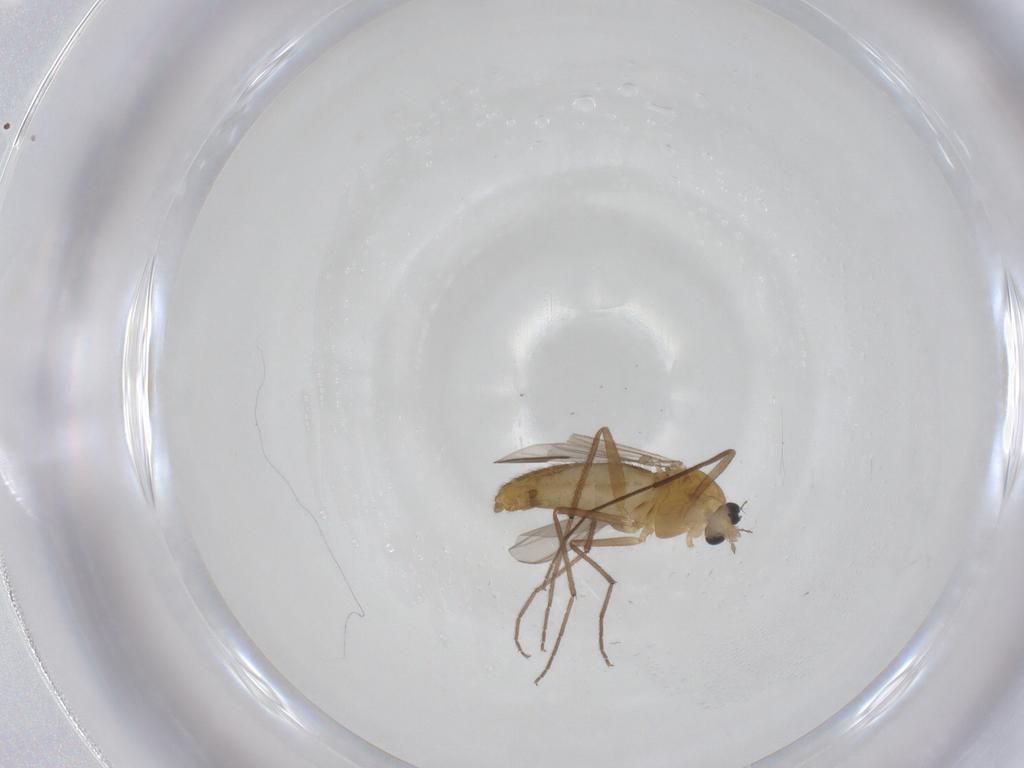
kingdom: Animalia
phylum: Arthropoda
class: Insecta
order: Diptera
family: Chironomidae
